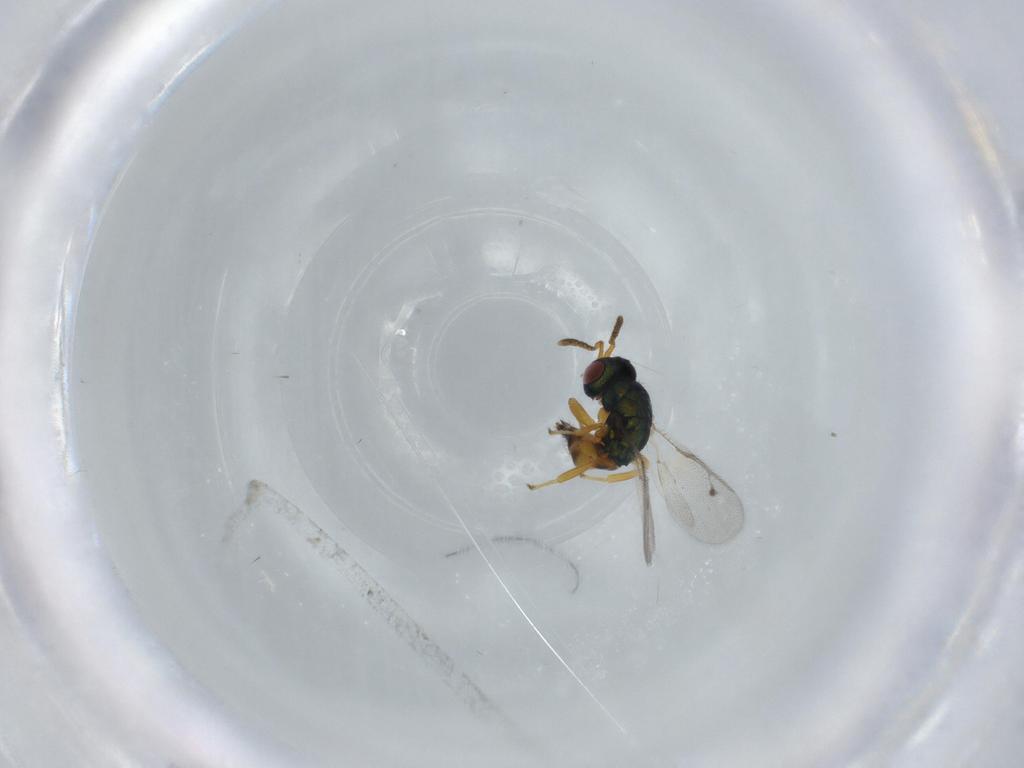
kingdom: Animalia
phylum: Arthropoda
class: Insecta
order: Hymenoptera
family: Pteromalidae
